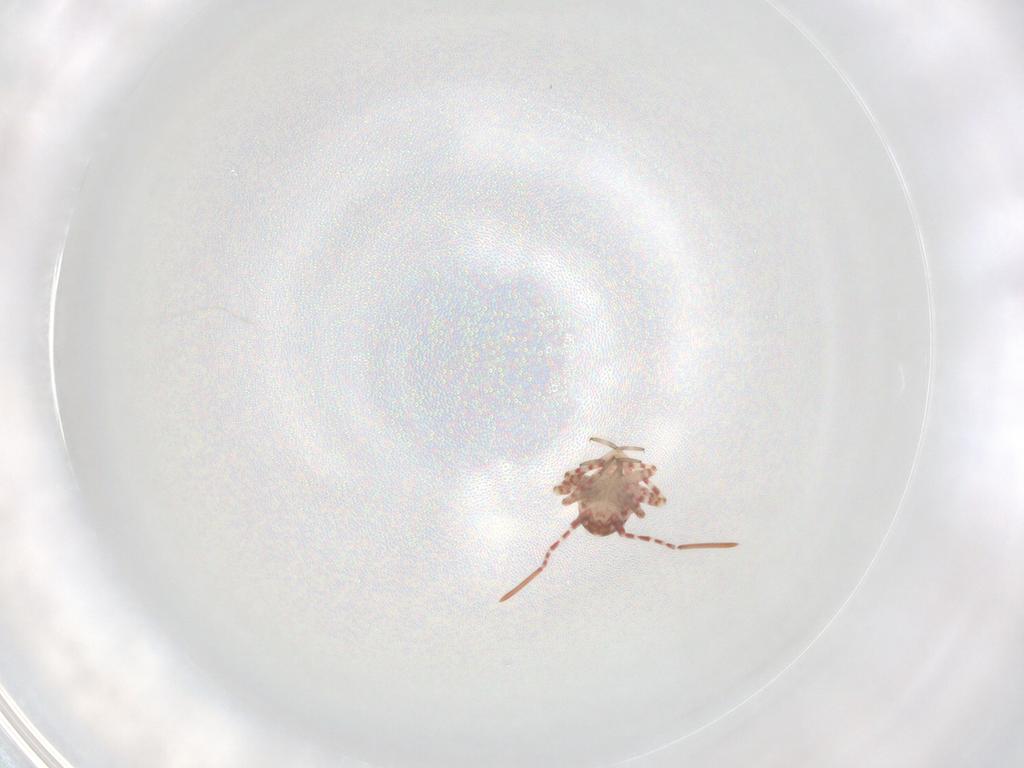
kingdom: Animalia
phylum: Arthropoda
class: Insecta
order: Hemiptera
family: Miridae
